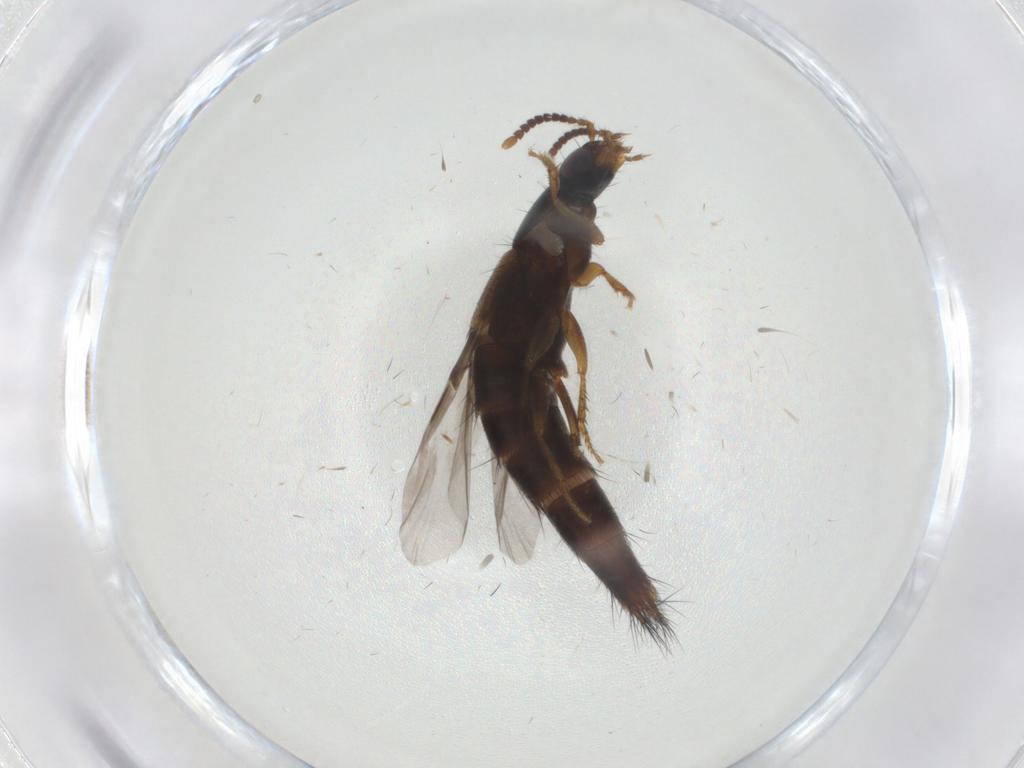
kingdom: Animalia
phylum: Arthropoda
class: Insecta
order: Coleoptera
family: Staphylinidae
